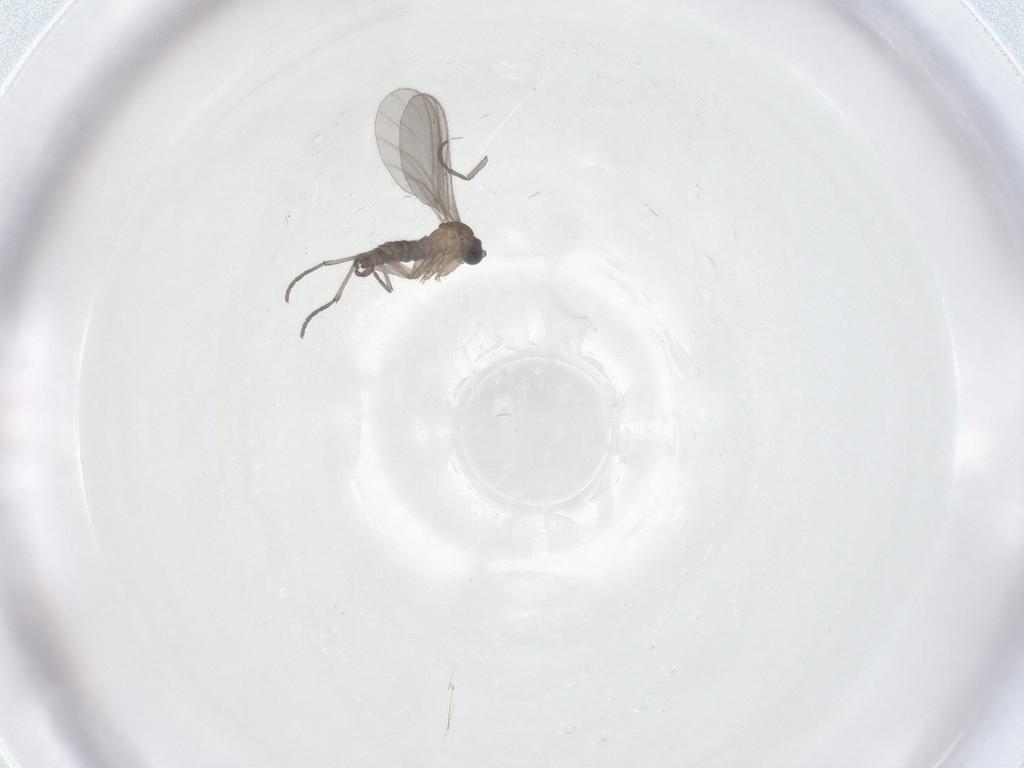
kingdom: Animalia
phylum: Arthropoda
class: Insecta
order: Diptera
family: Sciaridae
